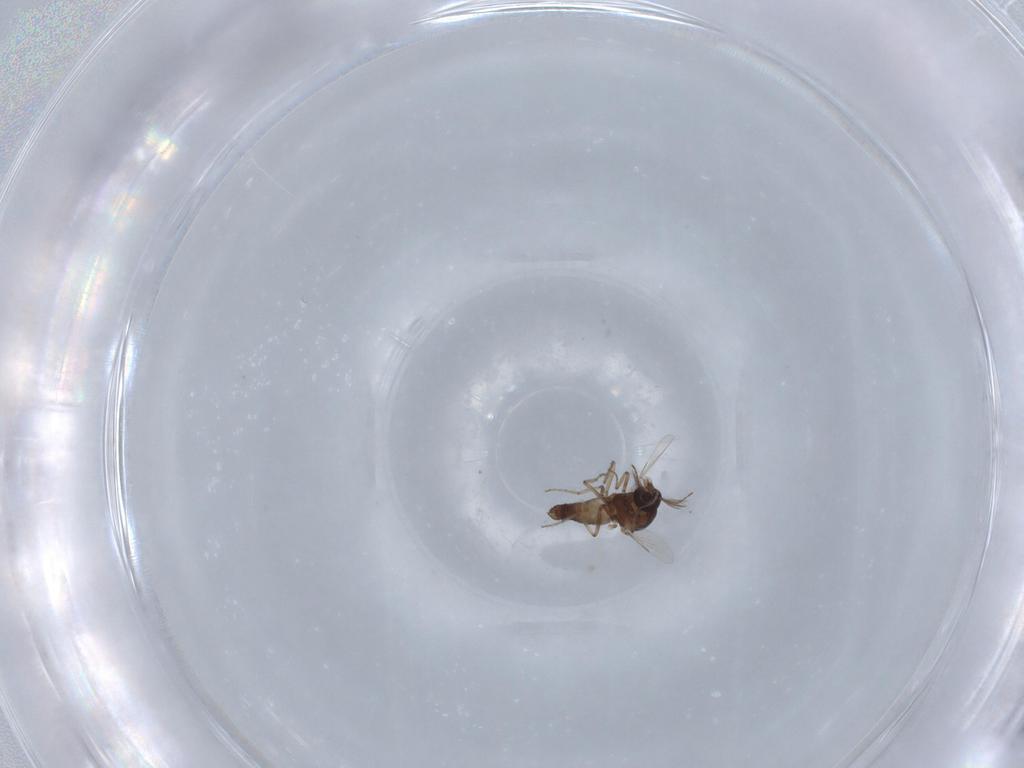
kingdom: Animalia
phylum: Arthropoda
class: Insecta
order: Diptera
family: Ceratopogonidae
